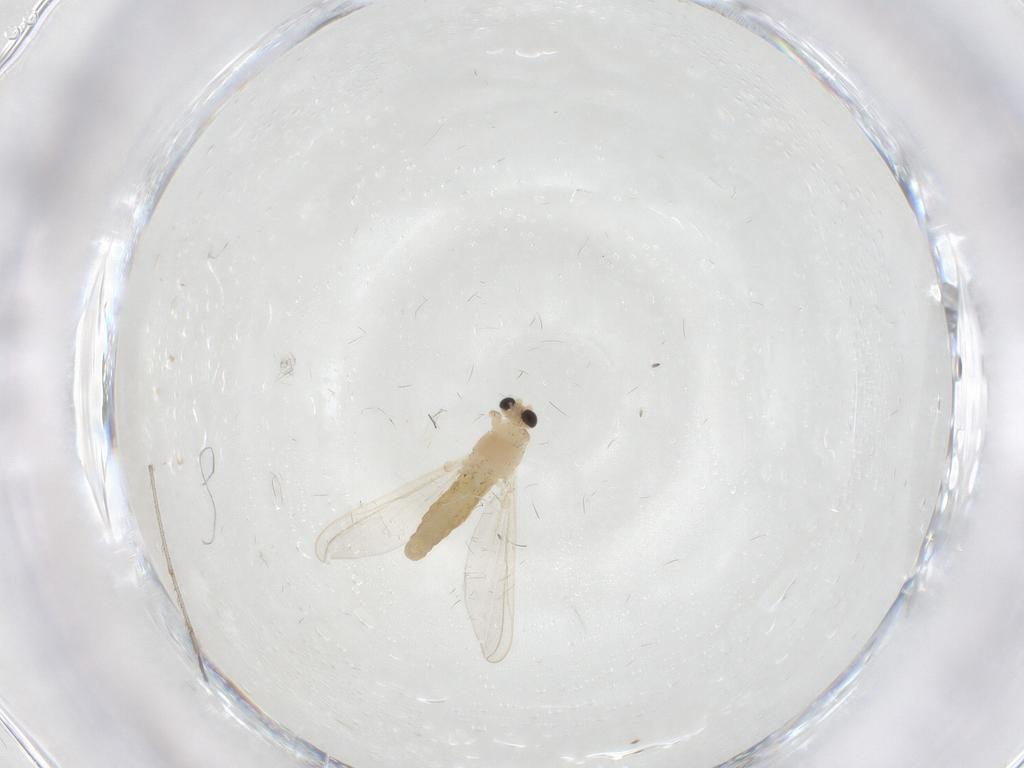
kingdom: Animalia
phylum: Arthropoda
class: Insecta
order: Diptera
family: Chironomidae
